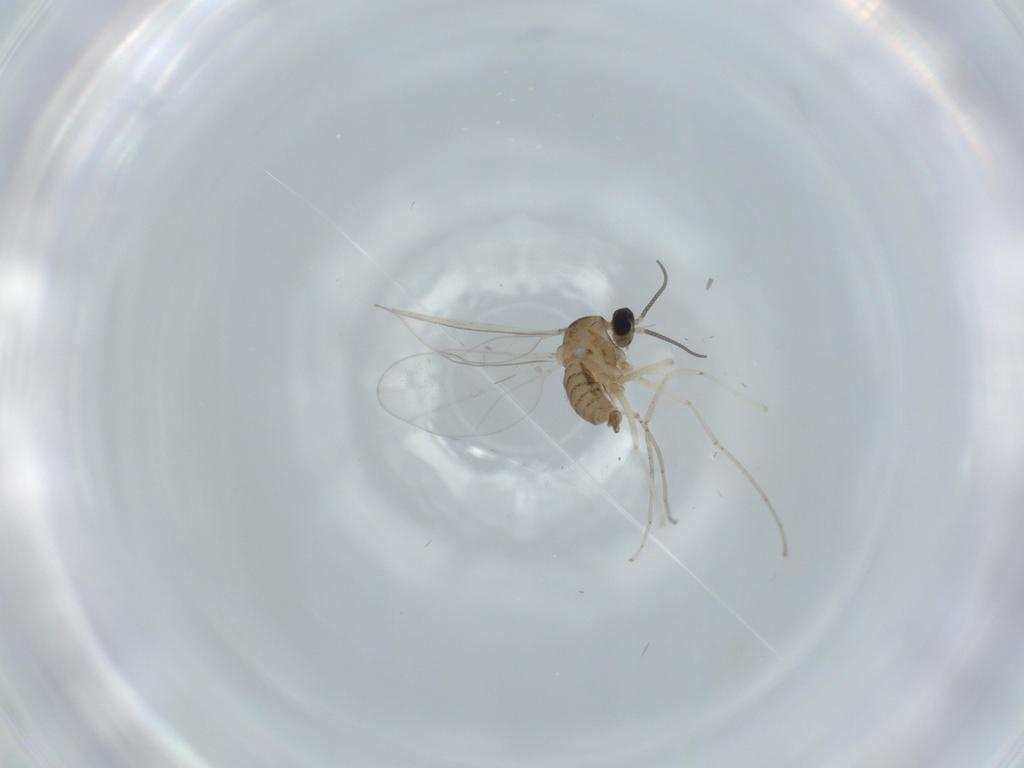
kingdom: Animalia
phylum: Arthropoda
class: Insecta
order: Diptera
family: Cecidomyiidae
